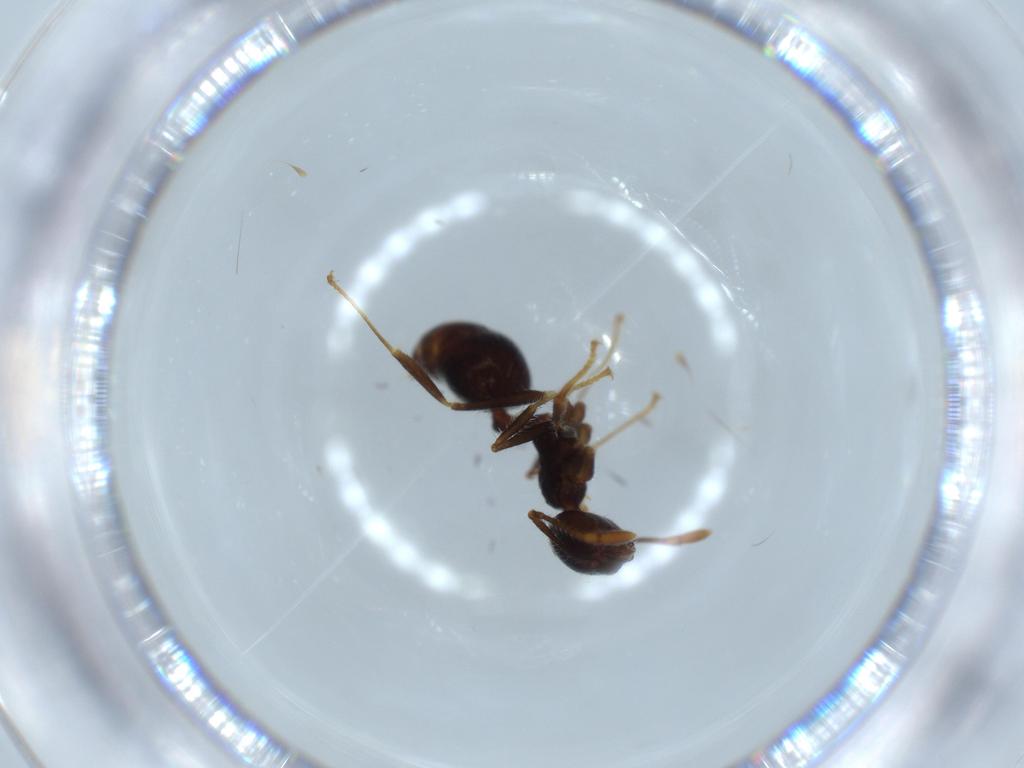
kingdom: Animalia
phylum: Arthropoda
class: Insecta
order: Hymenoptera
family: Formicidae
